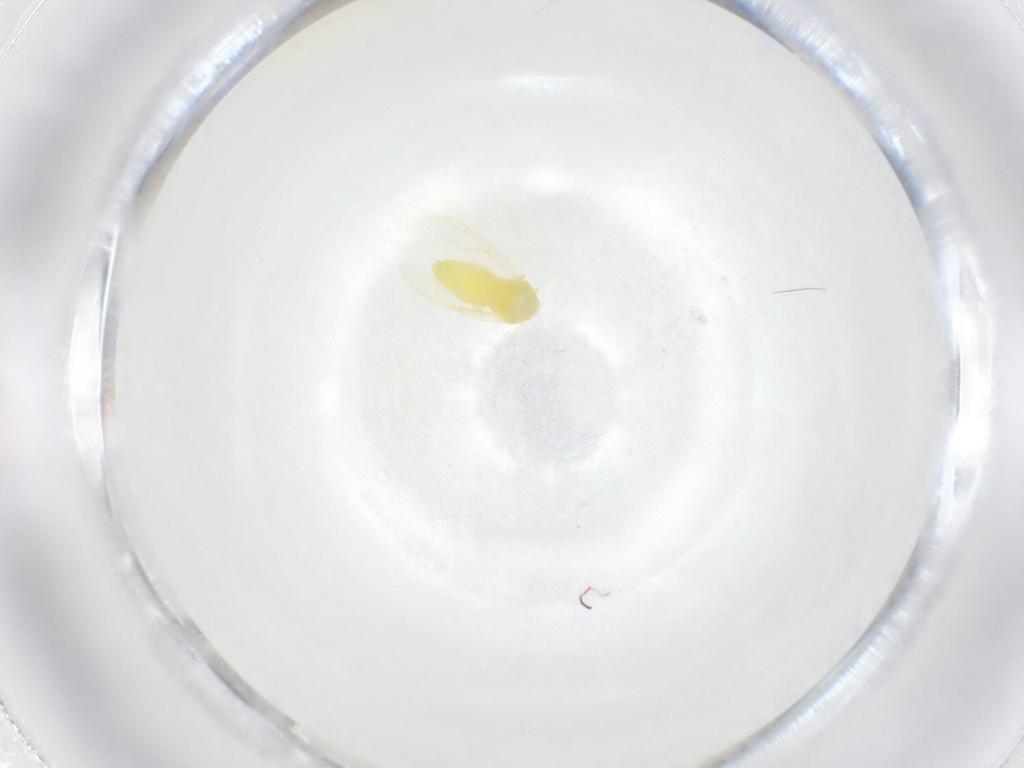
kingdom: Animalia
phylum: Arthropoda
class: Insecta
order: Hemiptera
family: Aleyrodidae
